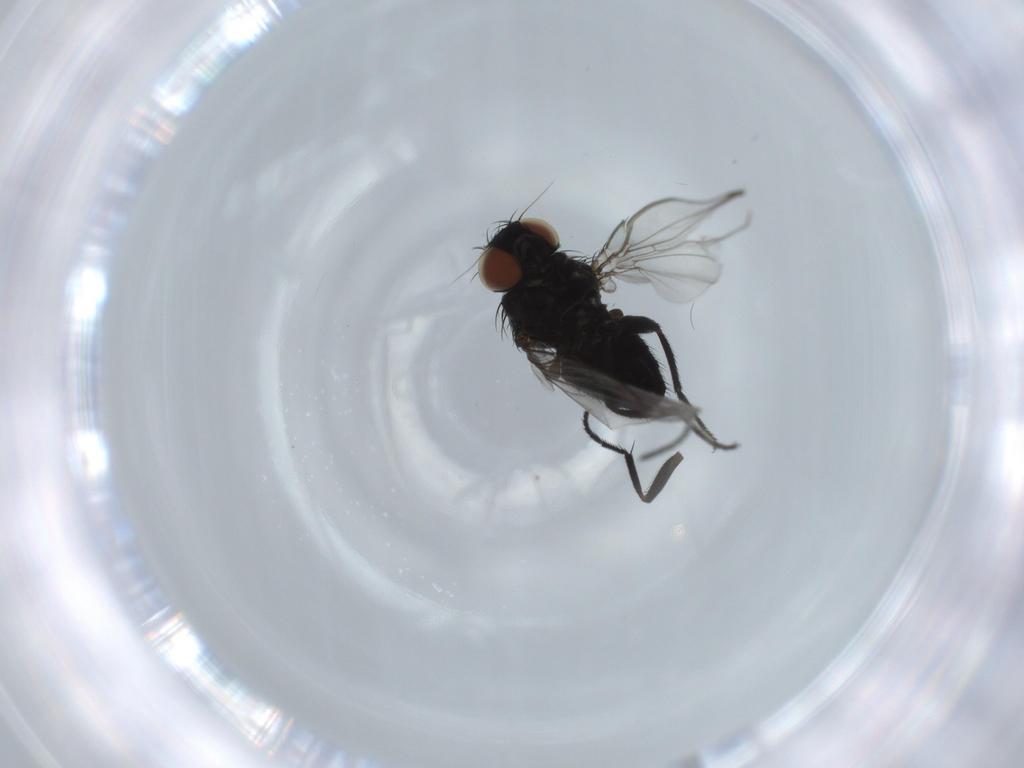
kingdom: Animalia
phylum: Arthropoda
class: Insecta
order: Diptera
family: Milichiidae
